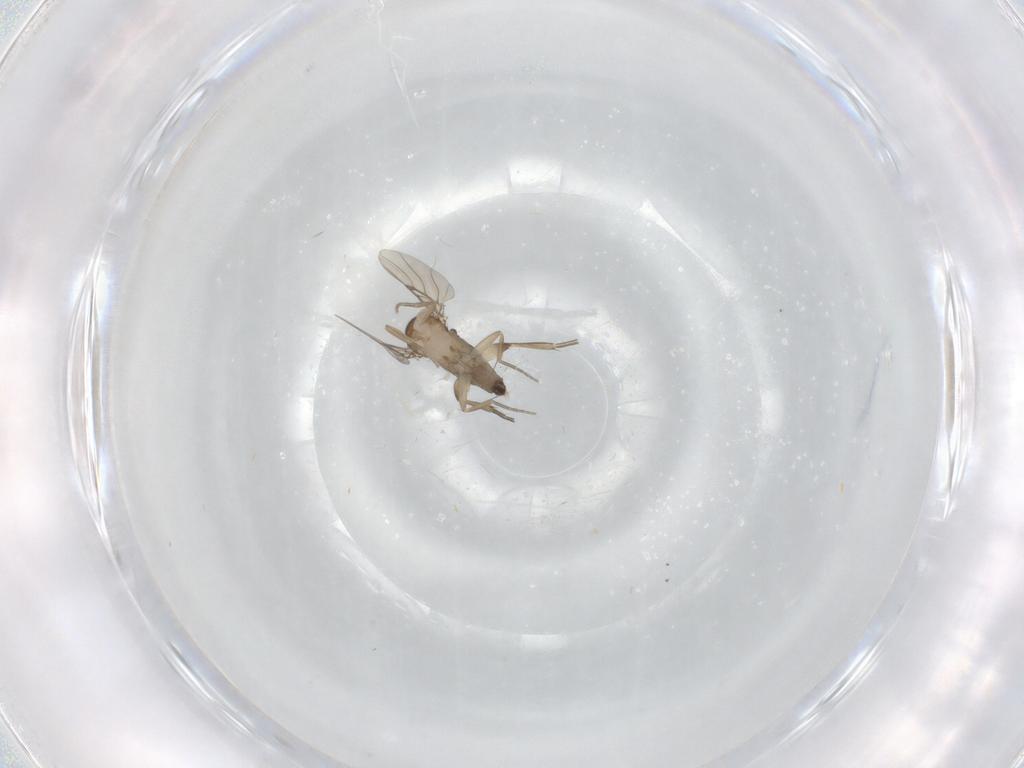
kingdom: Animalia
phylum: Arthropoda
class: Insecta
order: Diptera
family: Phoridae
